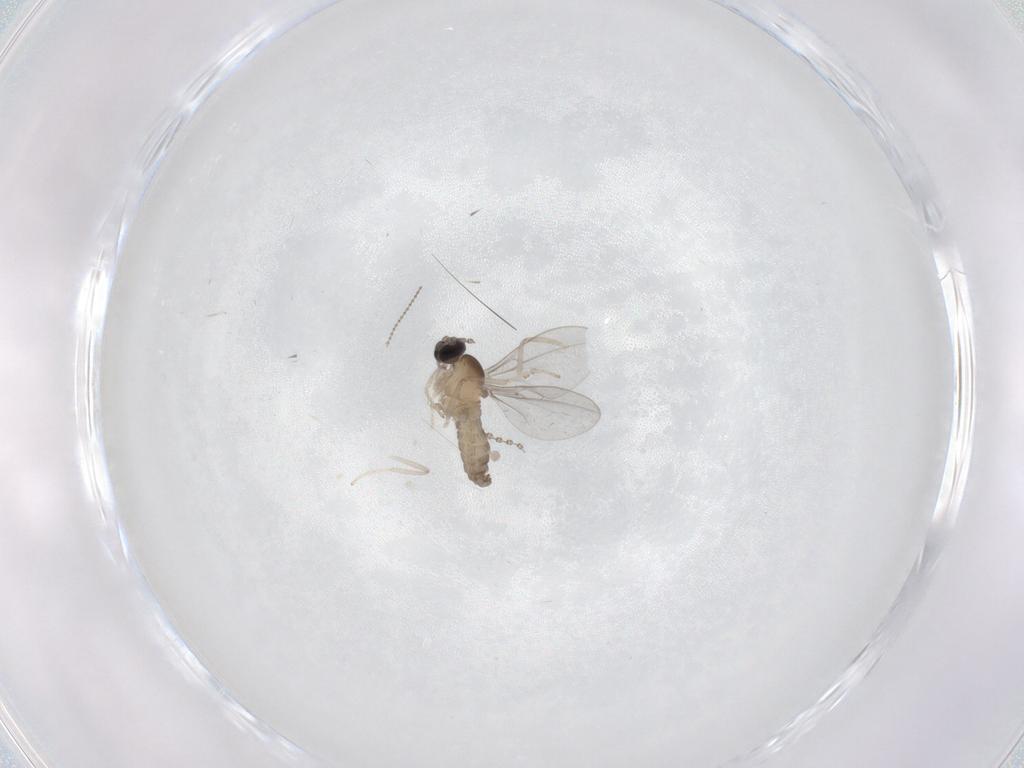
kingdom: Animalia
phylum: Arthropoda
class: Insecta
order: Diptera
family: Cecidomyiidae
